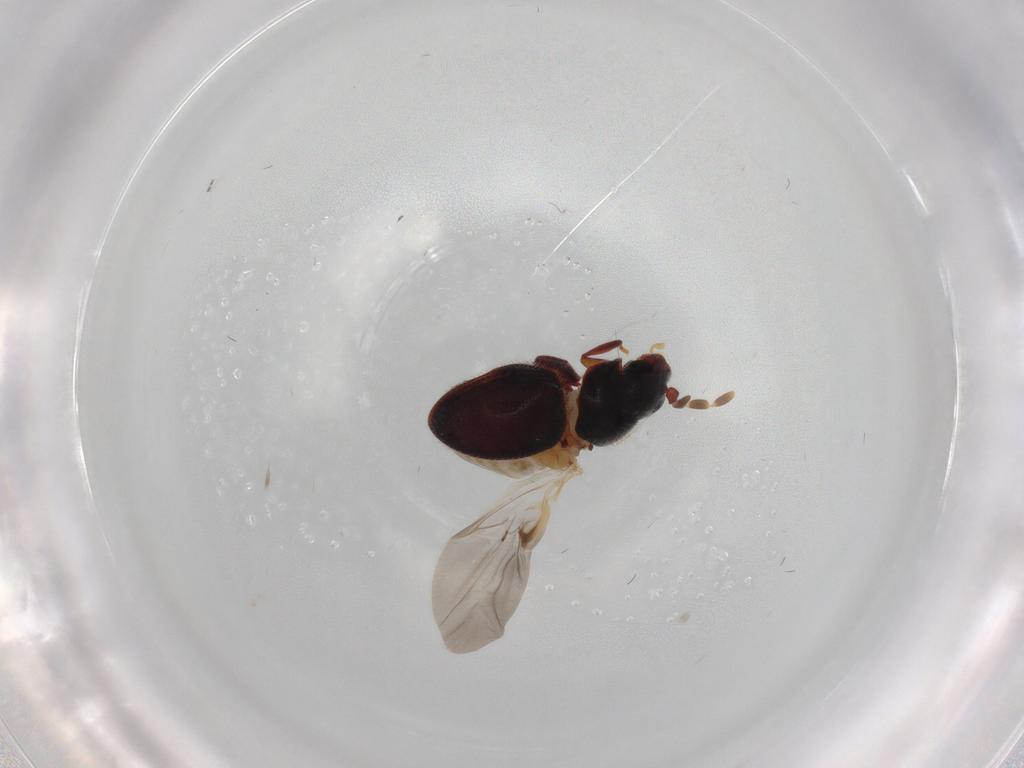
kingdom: Animalia
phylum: Arthropoda
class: Insecta
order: Coleoptera
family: Ptinidae
